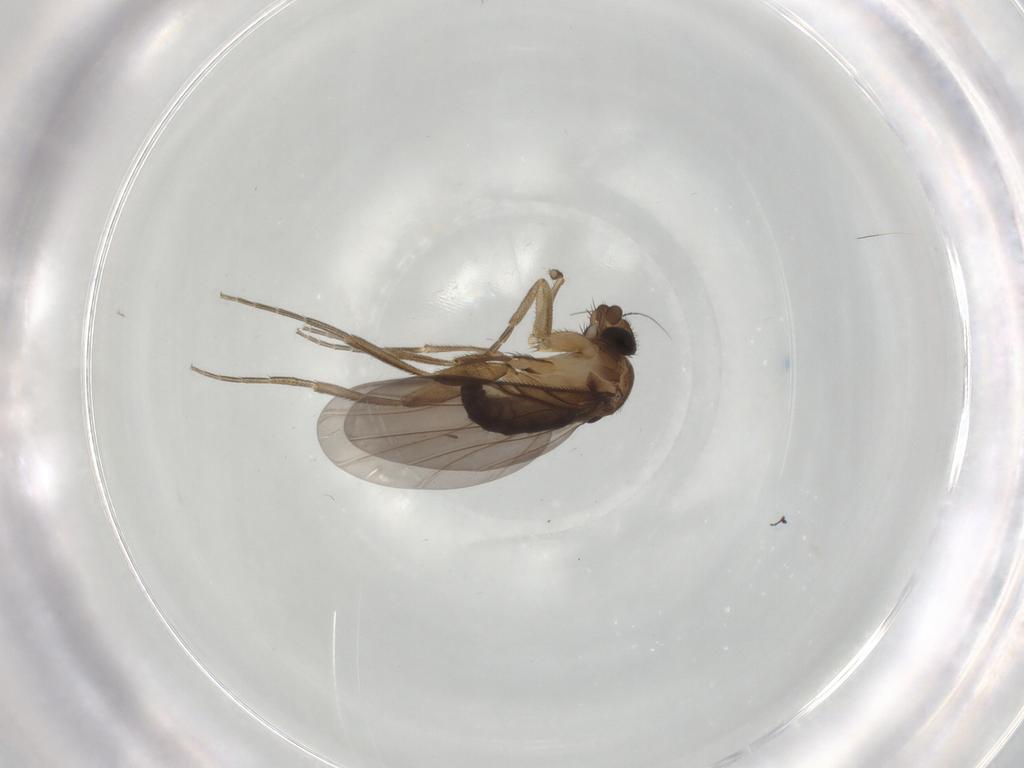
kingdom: Animalia
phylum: Arthropoda
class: Insecta
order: Diptera
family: Phoridae
